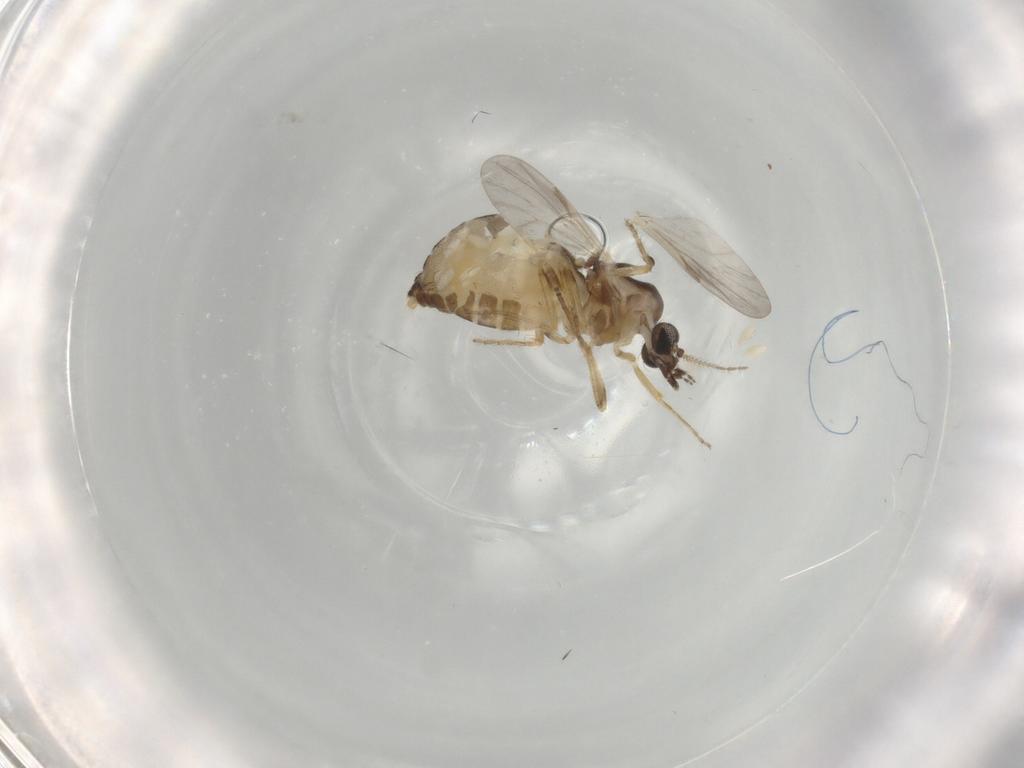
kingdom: Animalia
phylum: Arthropoda
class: Insecta
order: Diptera
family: Ceratopogonidae
